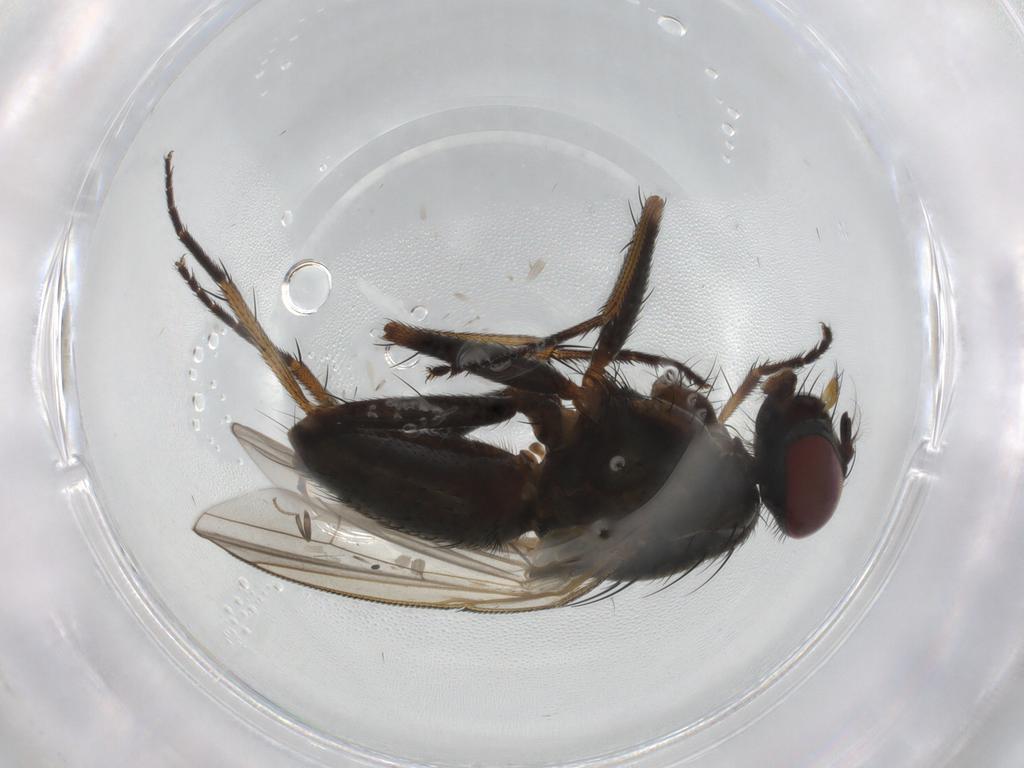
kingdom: Animalia
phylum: Arthropoda
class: Insecta
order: Diptera
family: Muscidae
